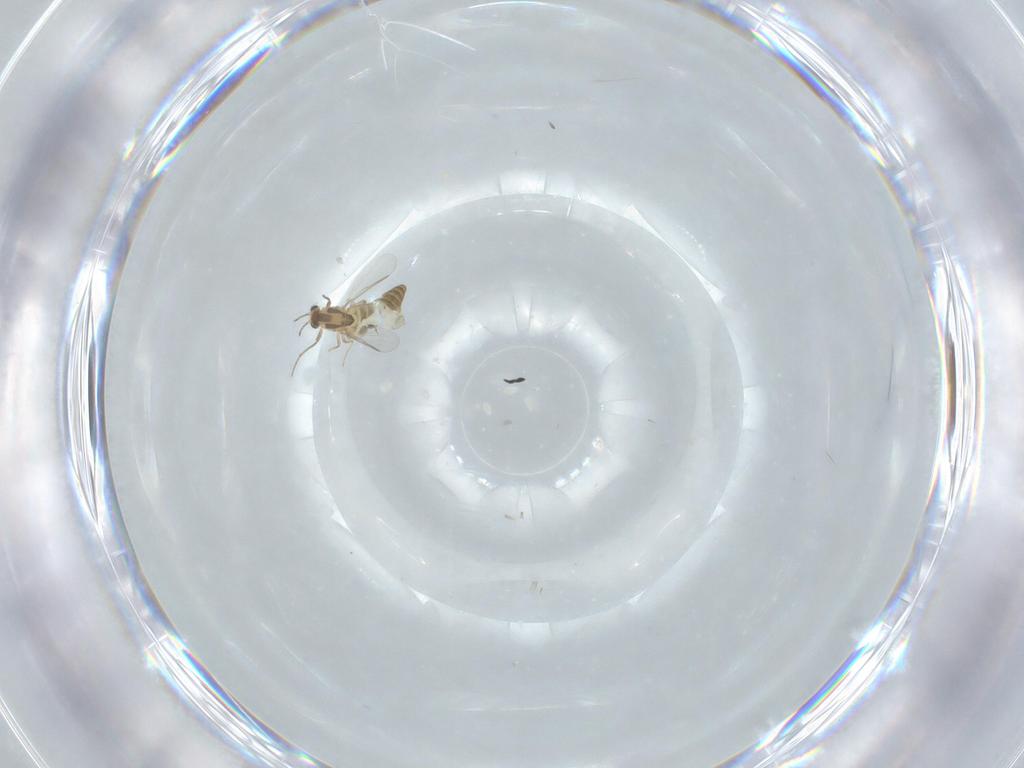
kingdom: Animalia
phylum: Arthropoda
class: Insecta
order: Diptera
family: Chironomidae
